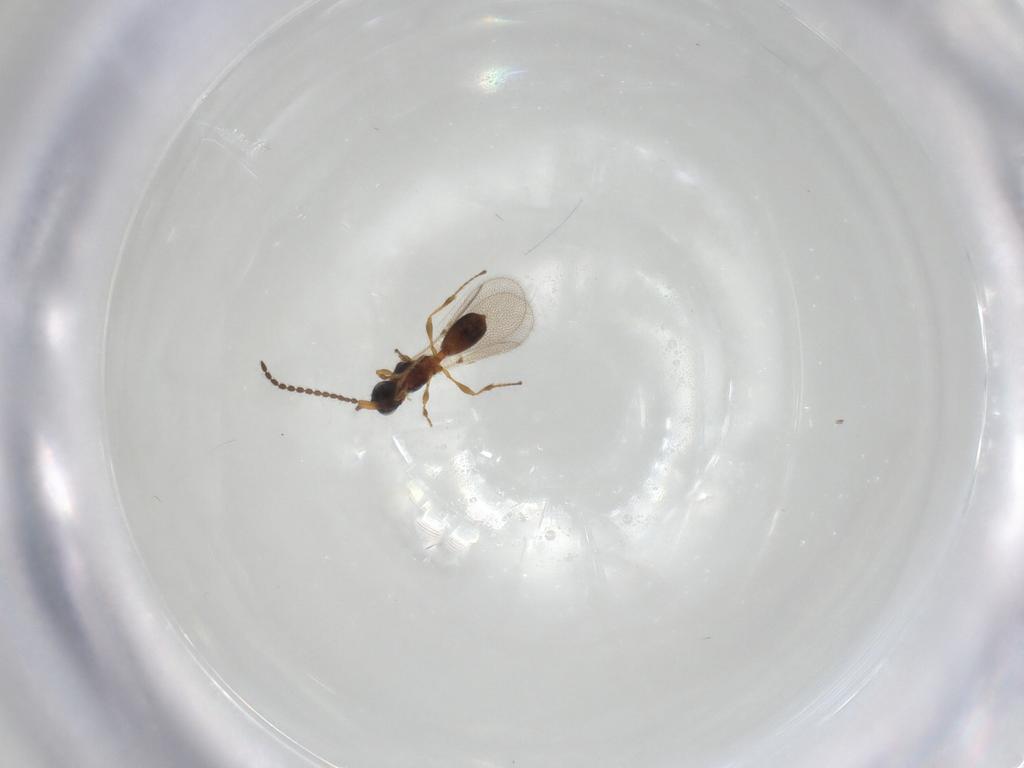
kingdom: Animalia
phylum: Arthropoda
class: Insecta
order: Hymenoptera
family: Diapriidae
